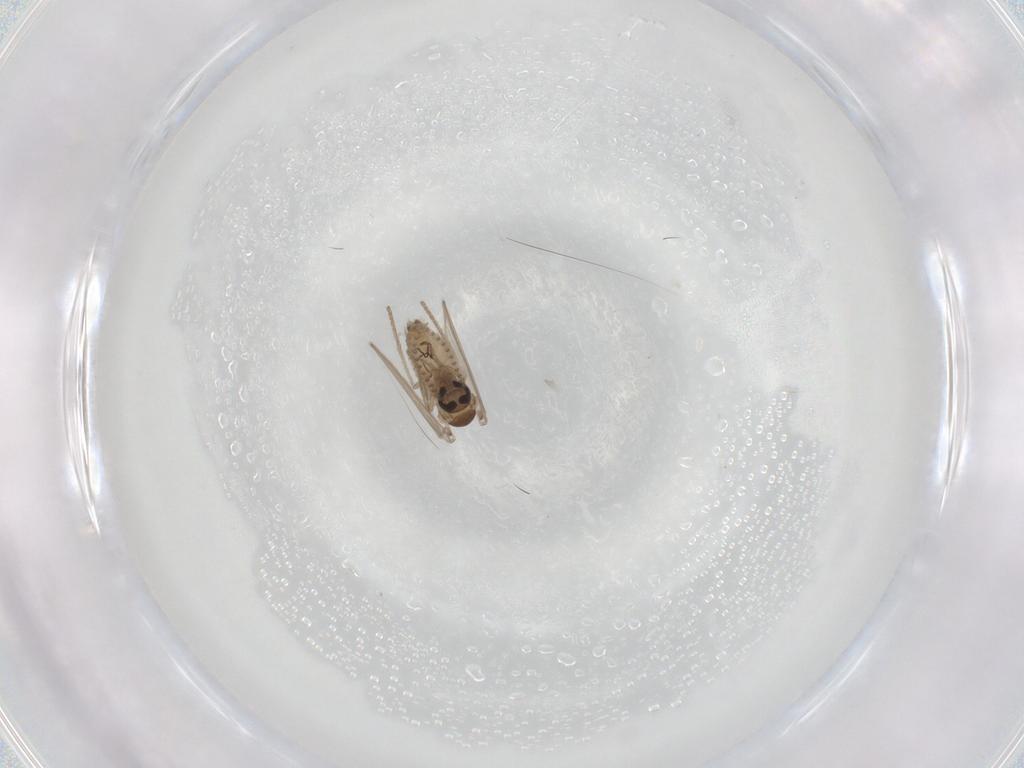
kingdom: Animalia
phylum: Arthropoda
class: Insecta
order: Diptera
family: Psychodidae
